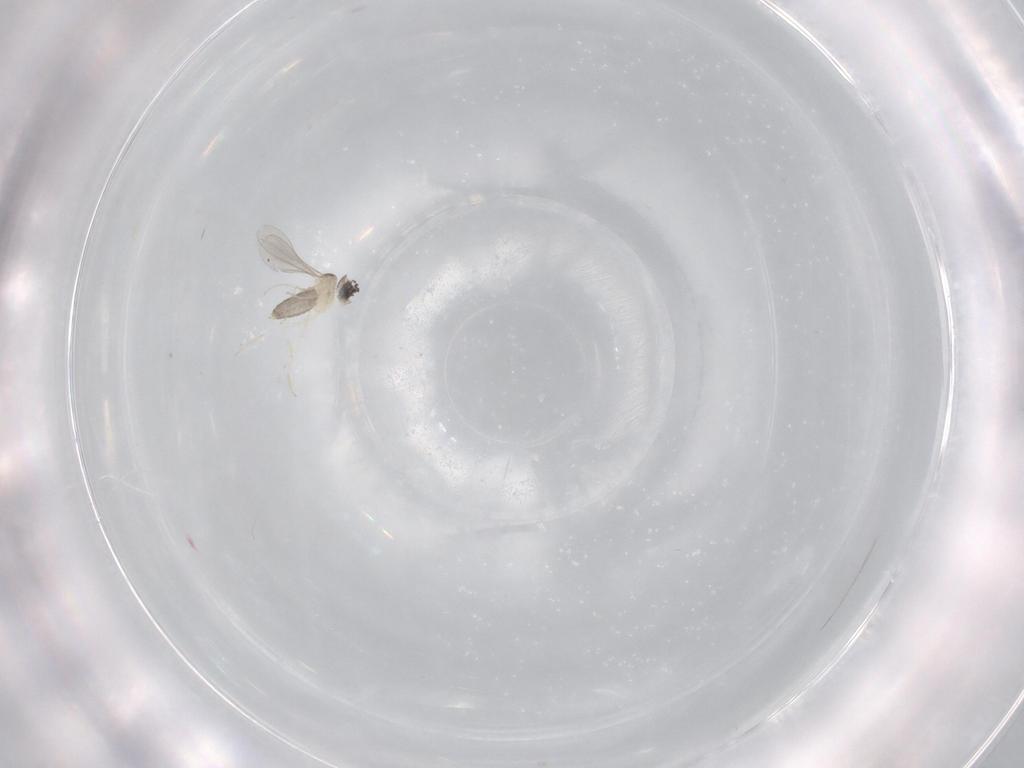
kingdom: Animalia
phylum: Arthropoda
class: Insecta
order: Diptera
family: Cecidomyiidae
